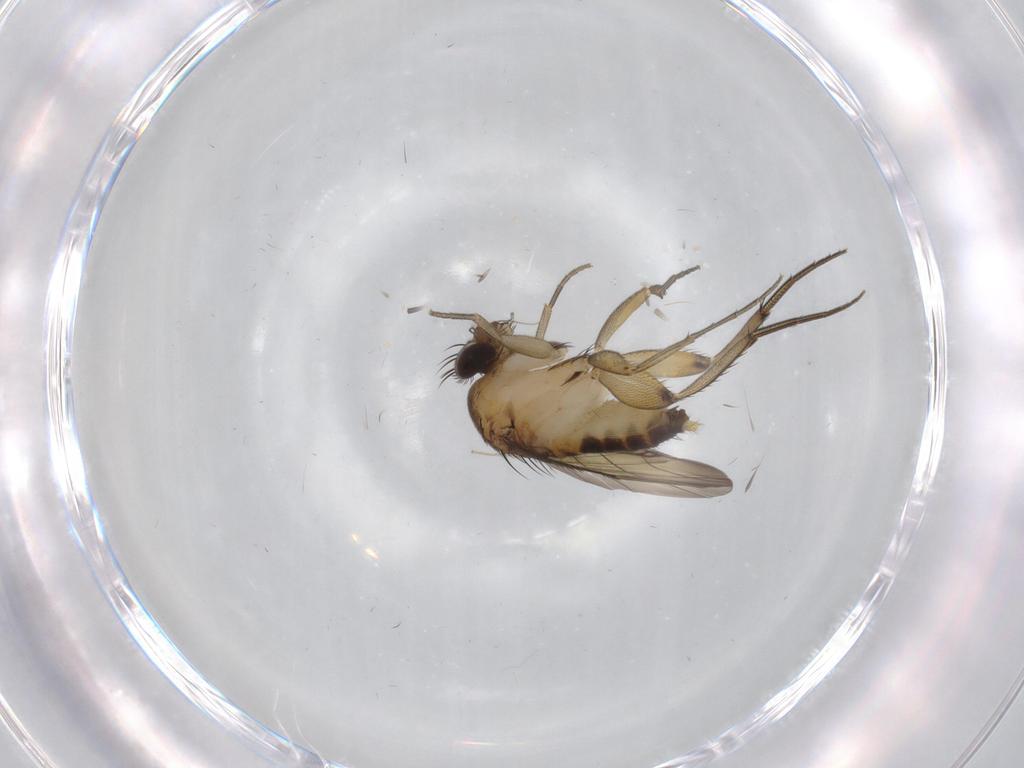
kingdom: Animalia
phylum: Arthropoda
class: Insecta
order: Diptera
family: Phoridae
